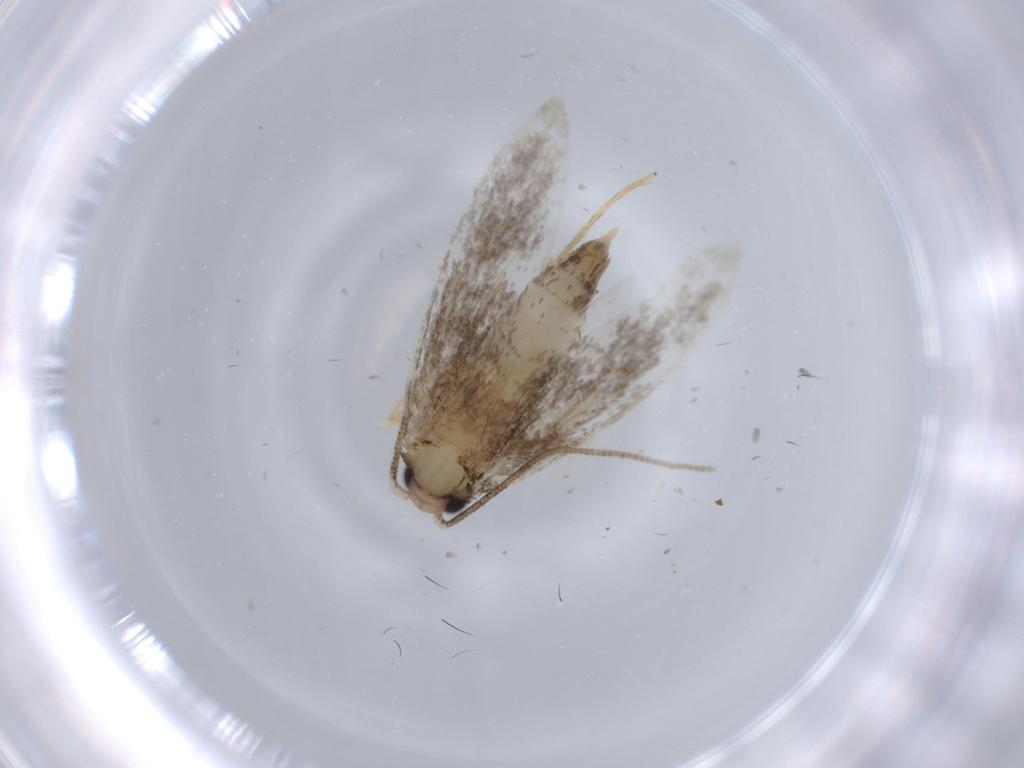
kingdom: Animalia
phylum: Arthropoda
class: Insecta
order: Lepidoptera
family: Tineidae
